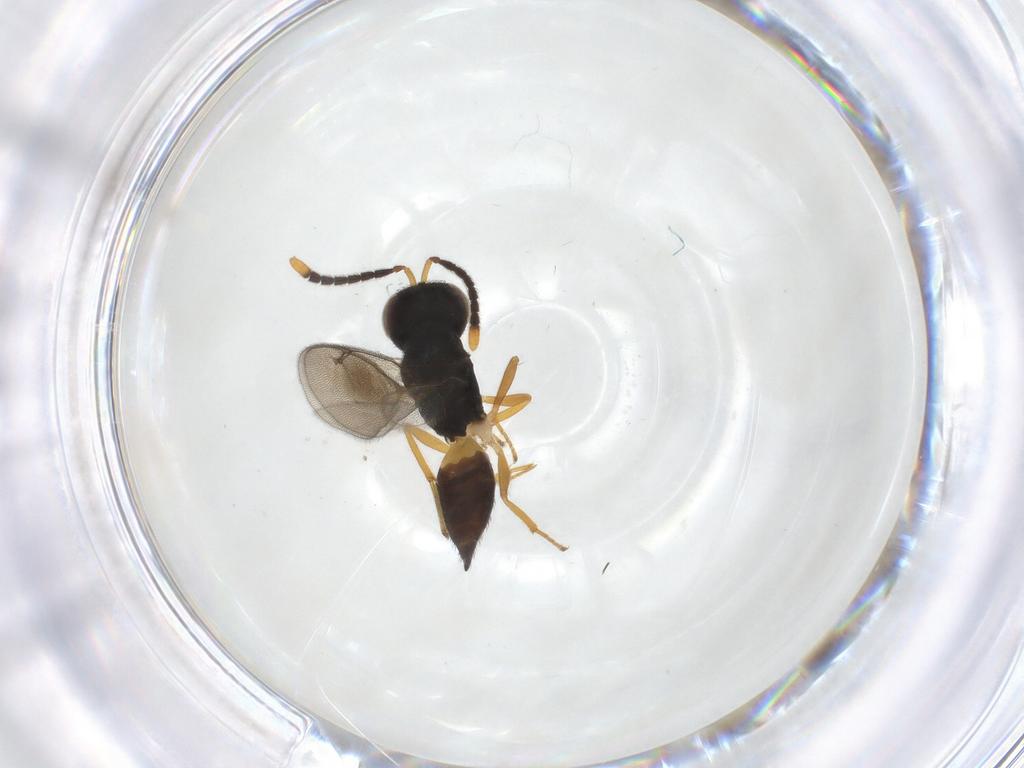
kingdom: Animalia
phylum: Arthropoda
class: Insecta
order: Hymenoptera
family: Pteromalidae
